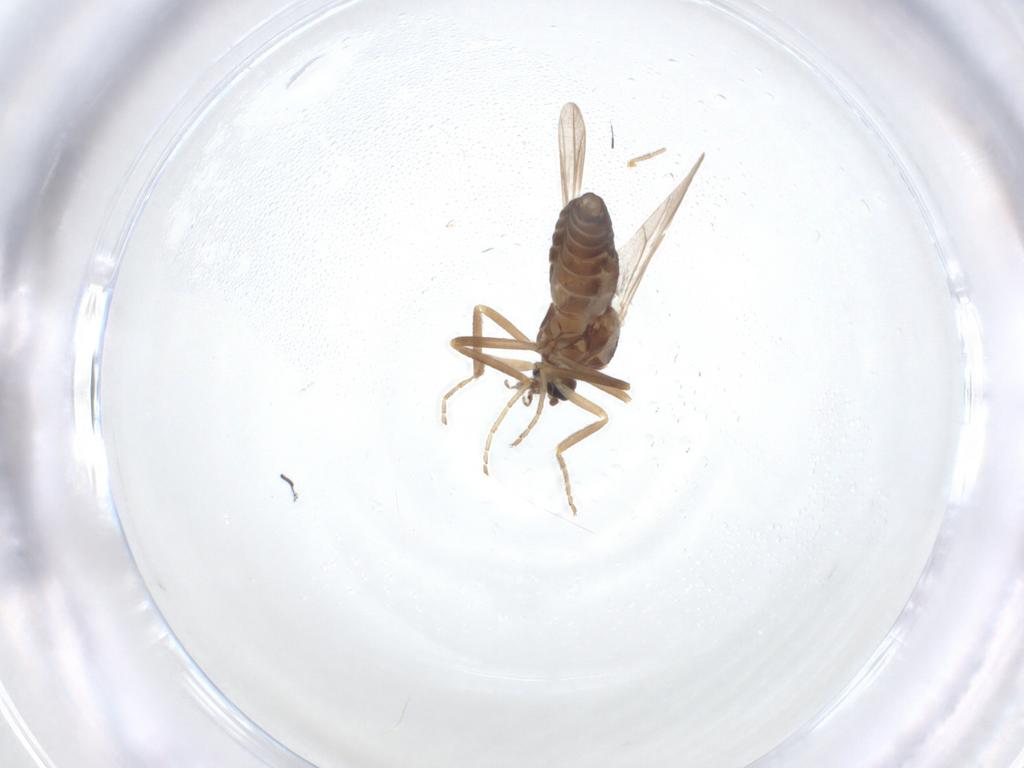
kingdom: Animalia
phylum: Arthropoda
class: Insecta
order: Diptera
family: Ceratopogonidae
